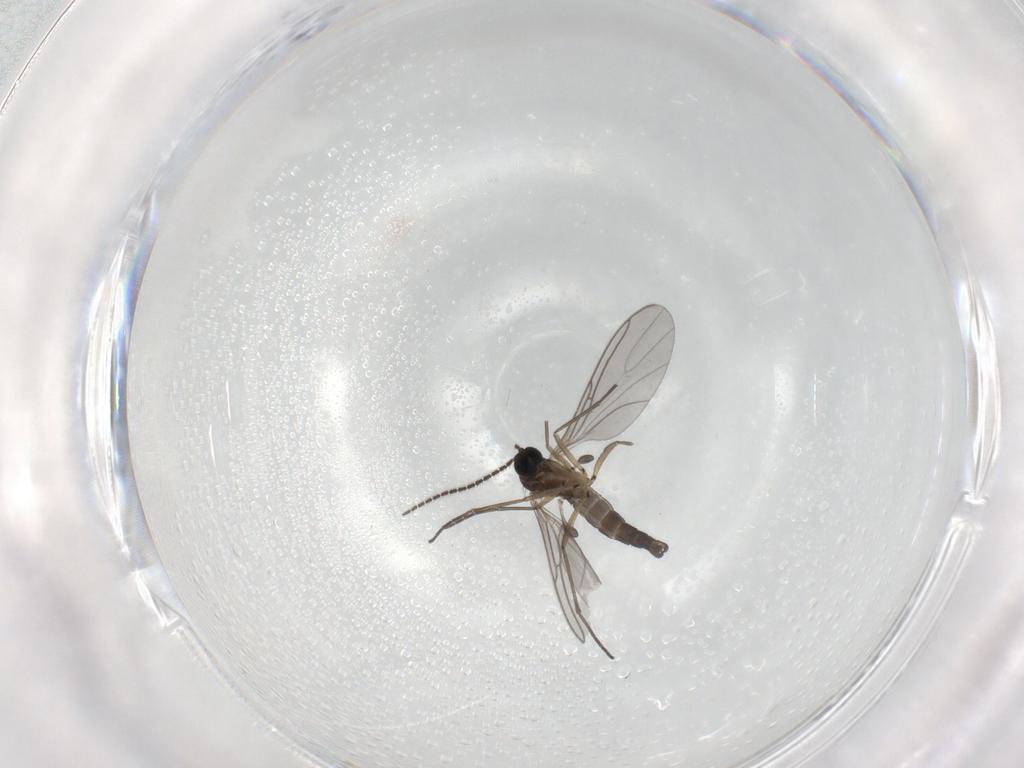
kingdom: Animalia
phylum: Arthropoda
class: Insecta
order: Diptera
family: Sciaridae
